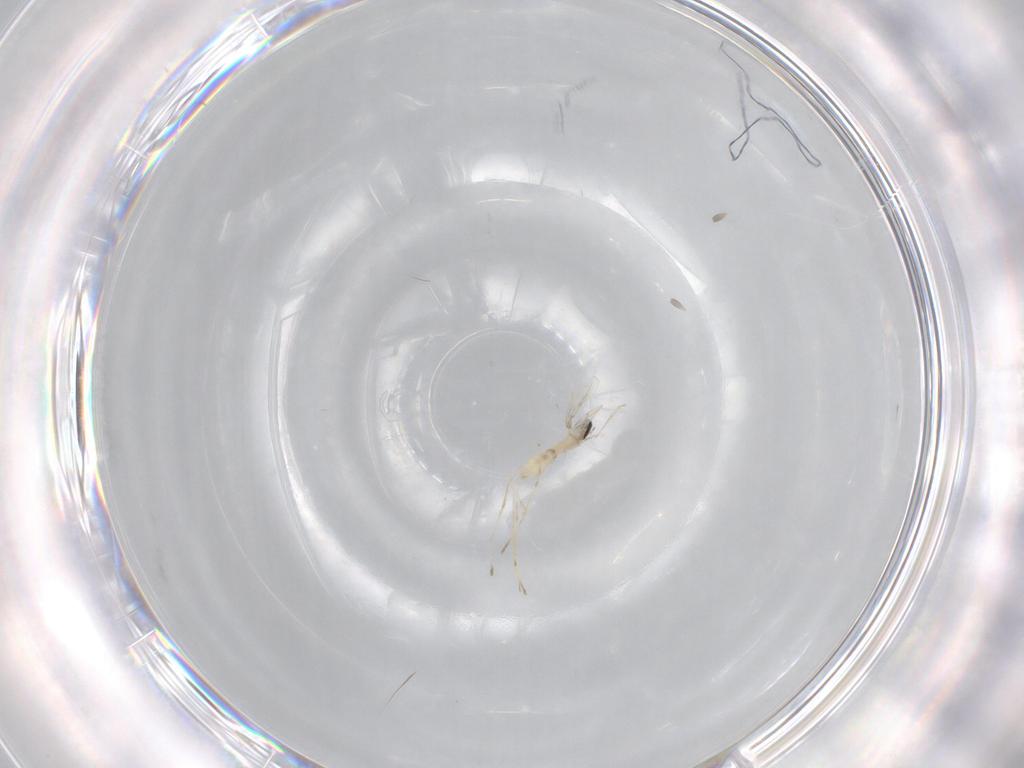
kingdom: Animalia
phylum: Arthropoda
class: Insecta
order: Diptera
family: Cecidomyiidae
